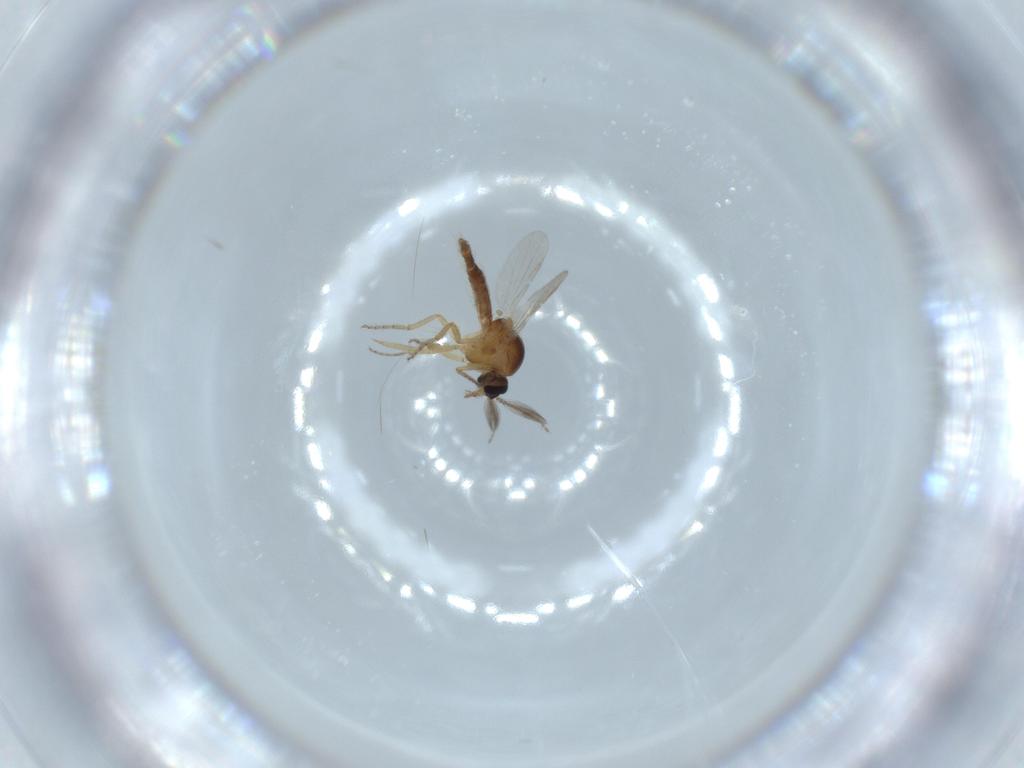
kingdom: Animalia
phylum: Arthropoda
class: Insecta
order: Diptera
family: Ceratopogonidae
